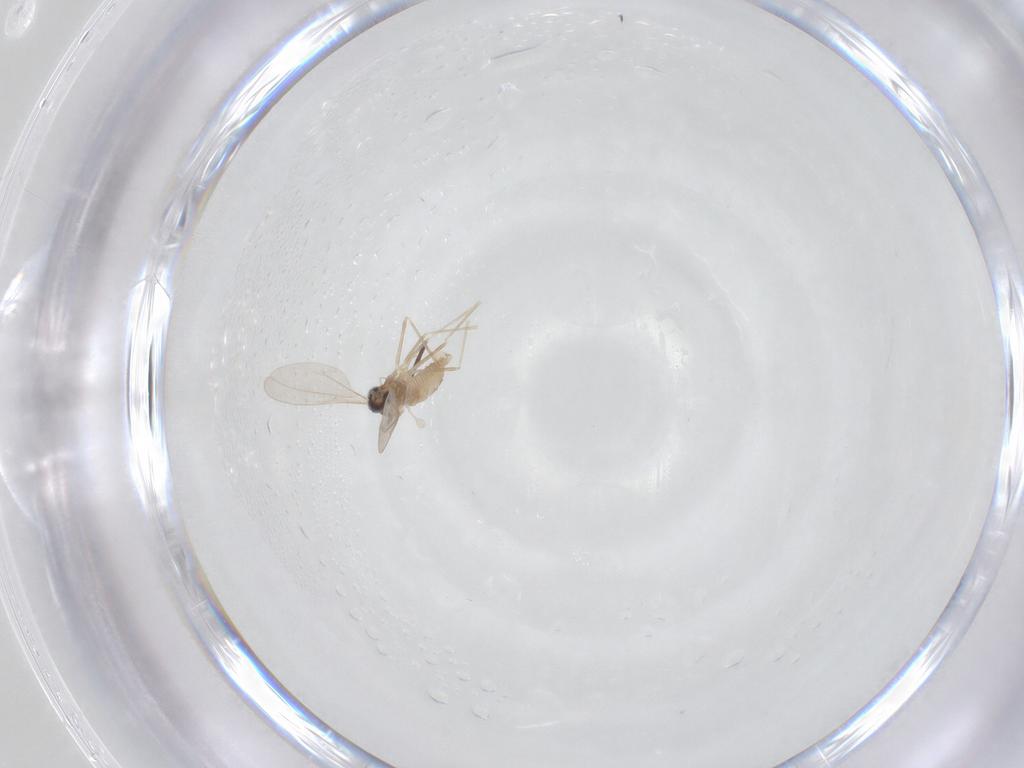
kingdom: Animalia
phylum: Arthropoda
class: Insecta
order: Diptera
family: Cecidomyiidae
